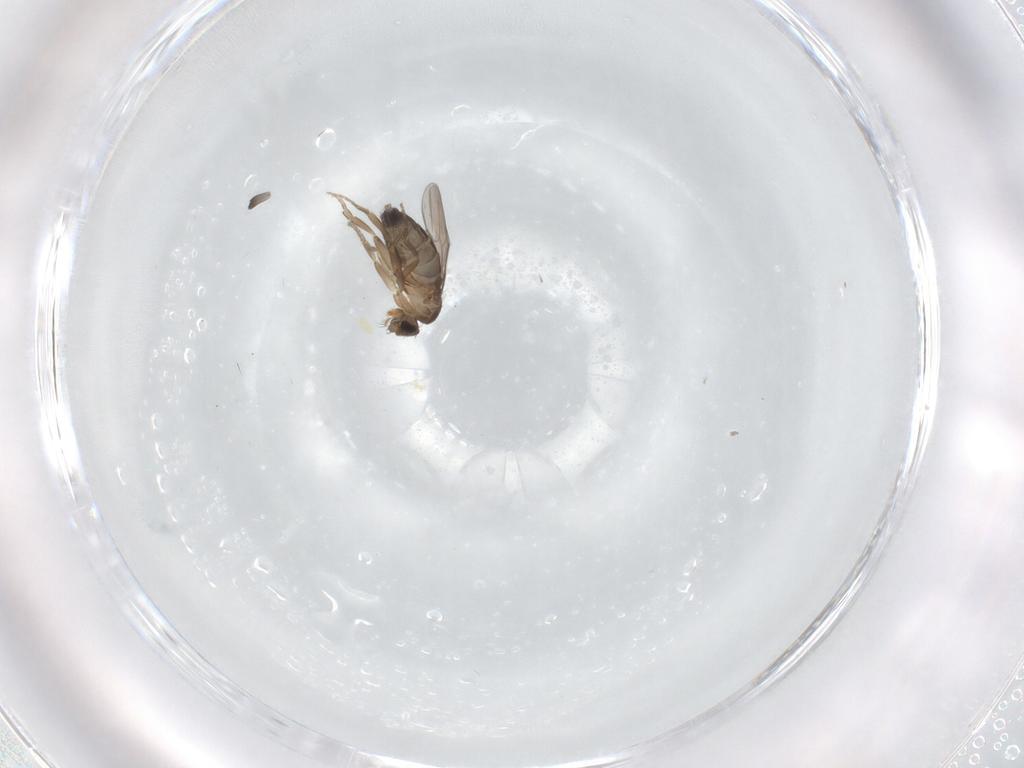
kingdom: Animalia
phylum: Arthropoda
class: Insecta
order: Diptera
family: Phoridae
